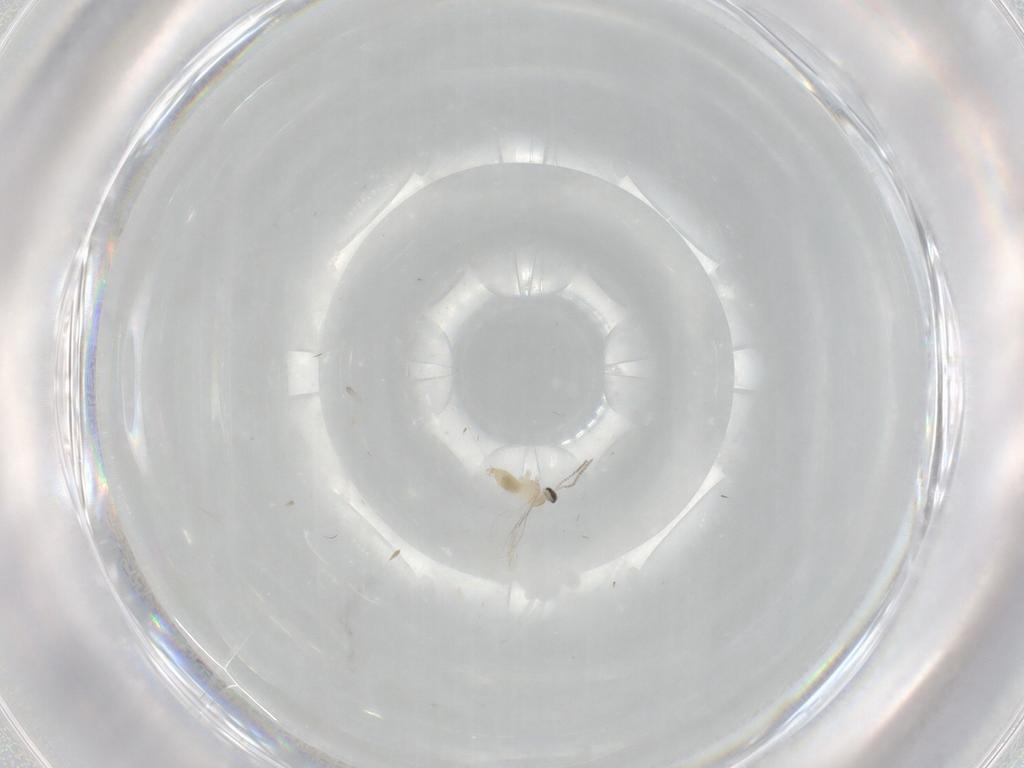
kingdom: Animalia
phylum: Arthropoda
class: Insecta
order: Diptera
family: Cecidomyiidae
